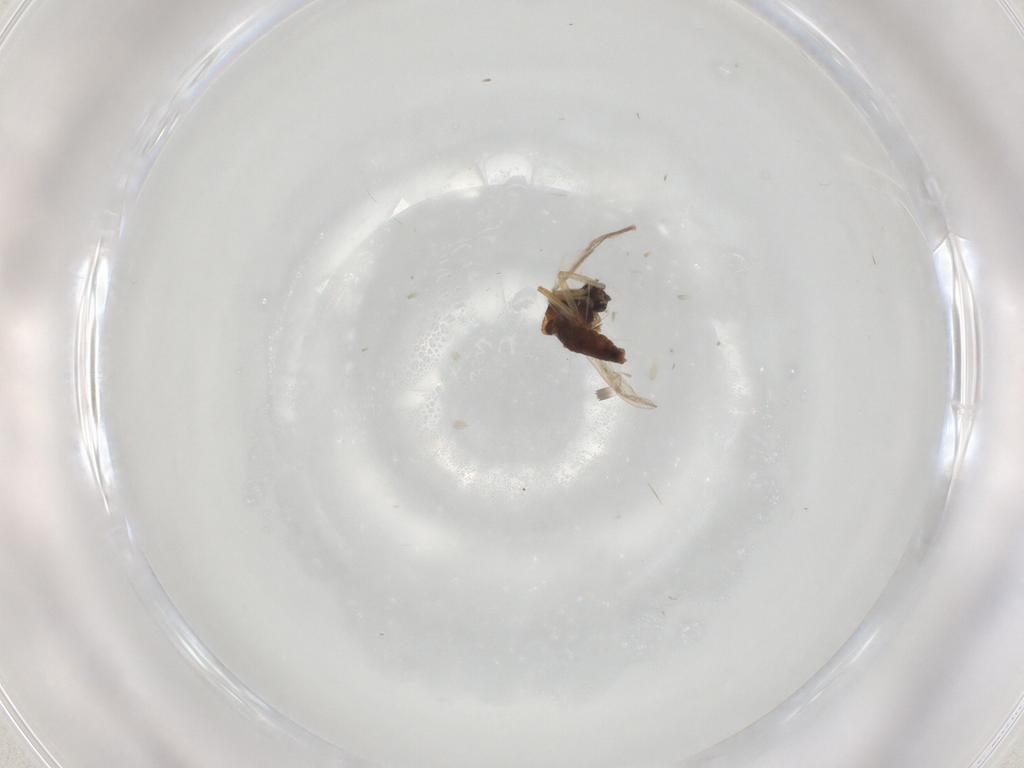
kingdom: Animalia
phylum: Arthropoda
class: Insecta
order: Diptera
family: Ceratopogonidae
